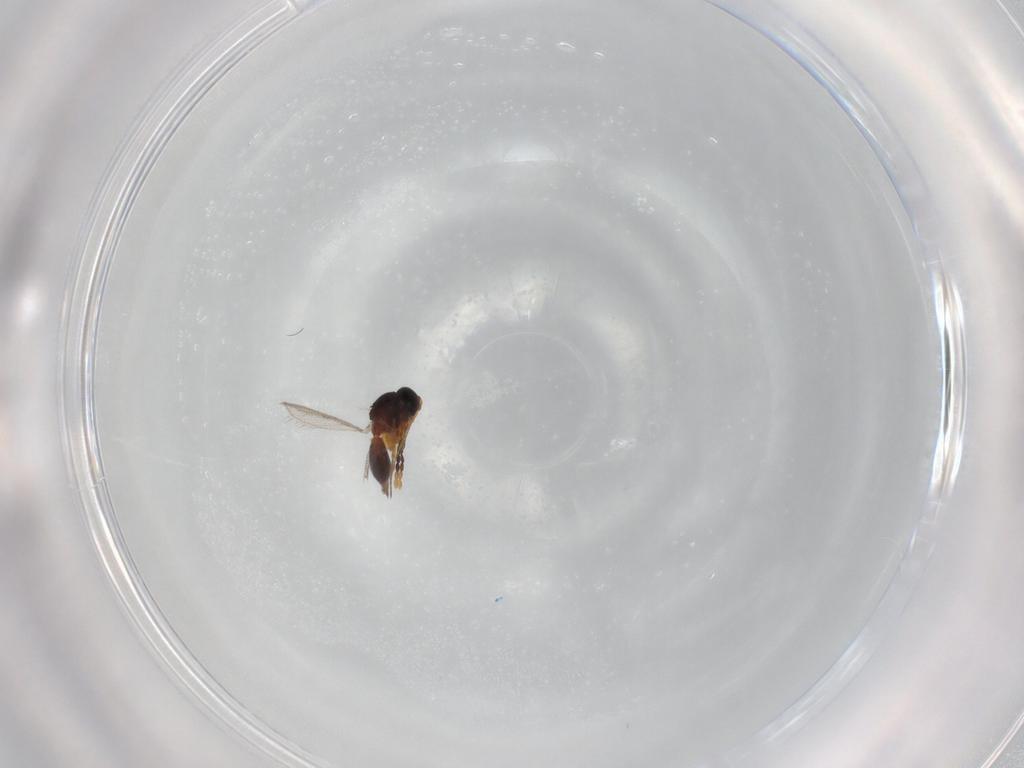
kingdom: Animalia
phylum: Arthropoda
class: Insecta
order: Hymenoptera
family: Figitidae
